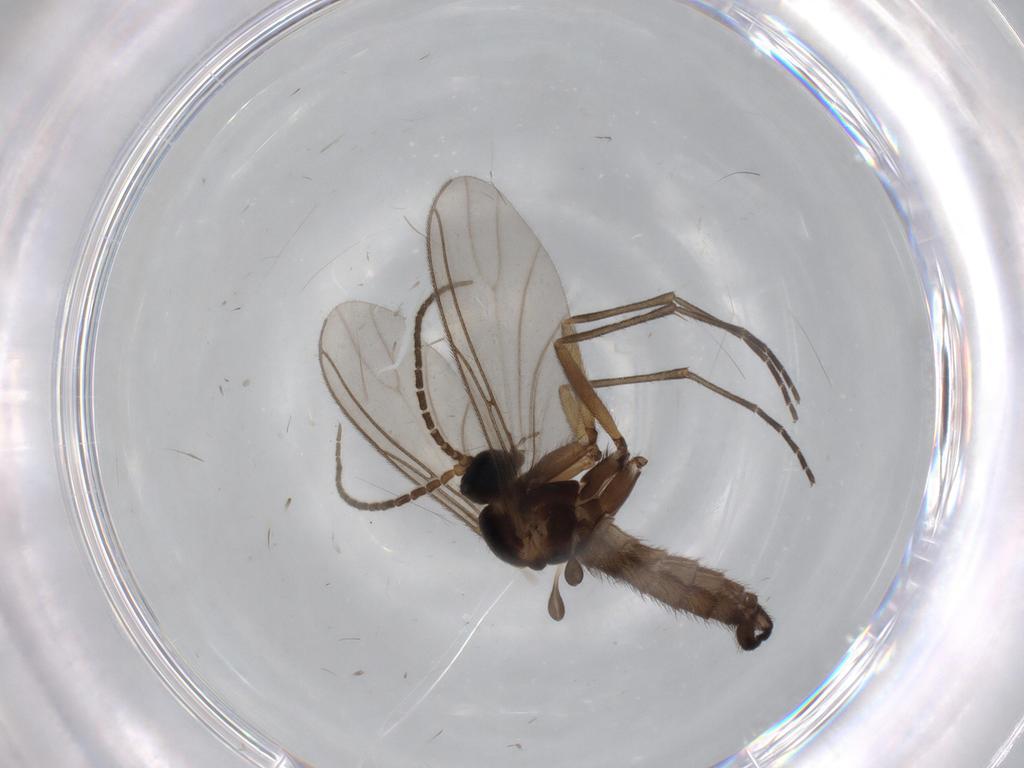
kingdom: Animalia
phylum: Arthropoda
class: Insecta
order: Diptera
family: Sciaridae
